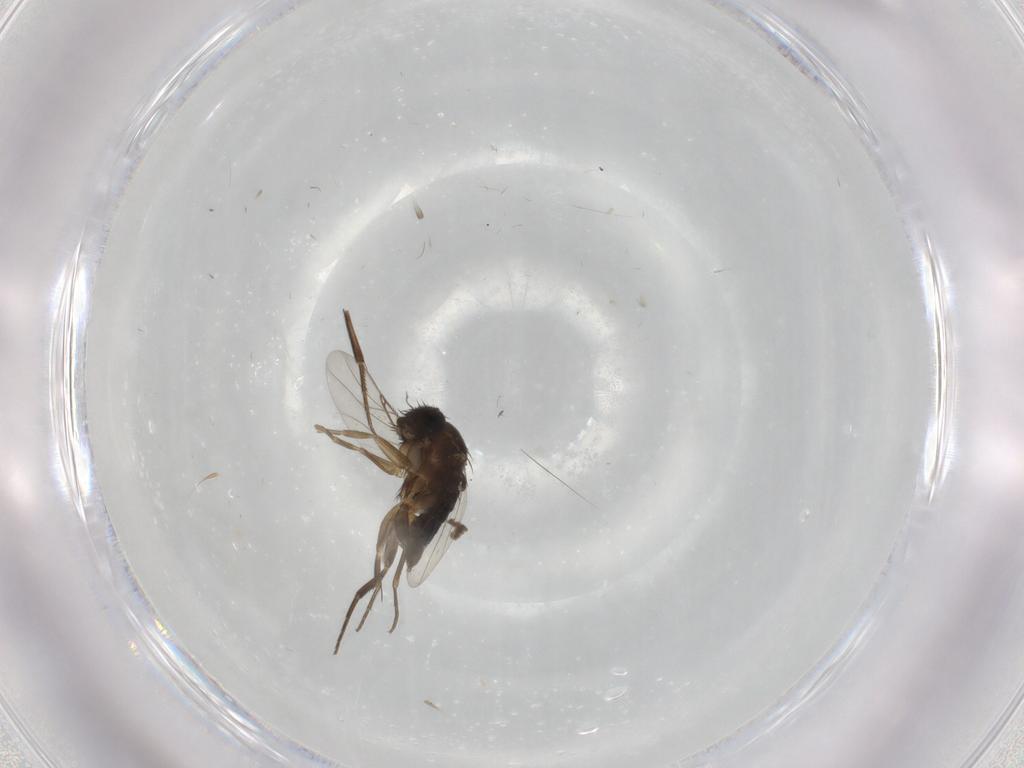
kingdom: Animalia
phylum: Arthropoda
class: Insecta
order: Diptera
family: Phoridae
